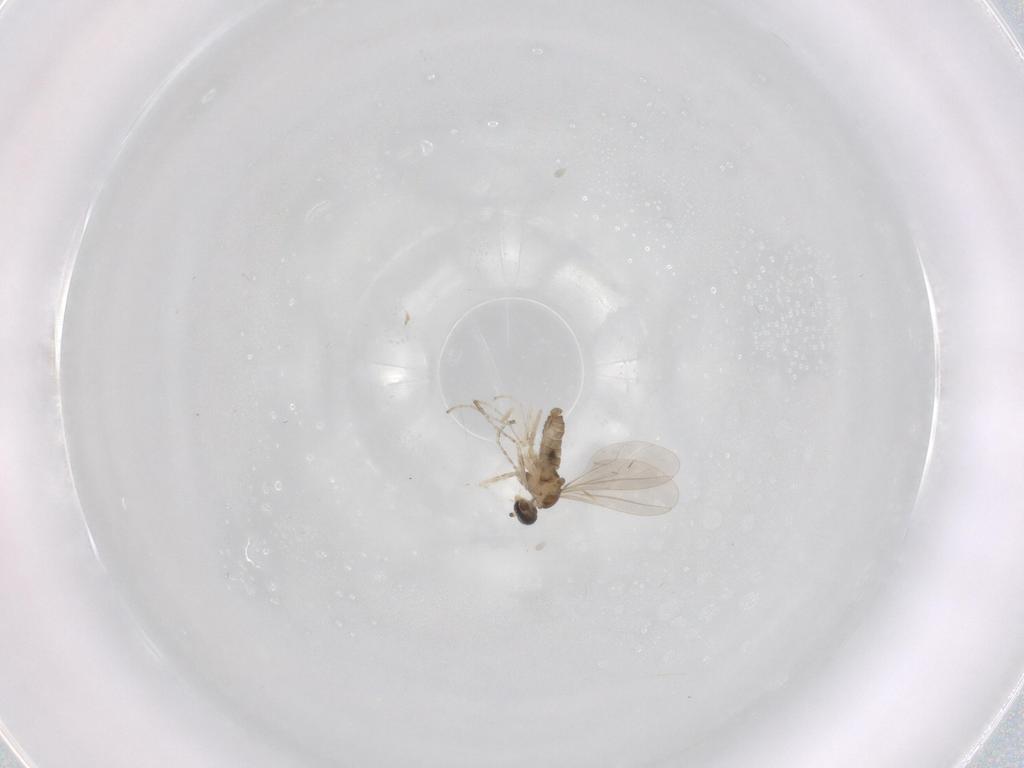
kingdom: Animalia
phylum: Arthropoda
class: Insecta
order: Diptera
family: Cecidomyiidae
